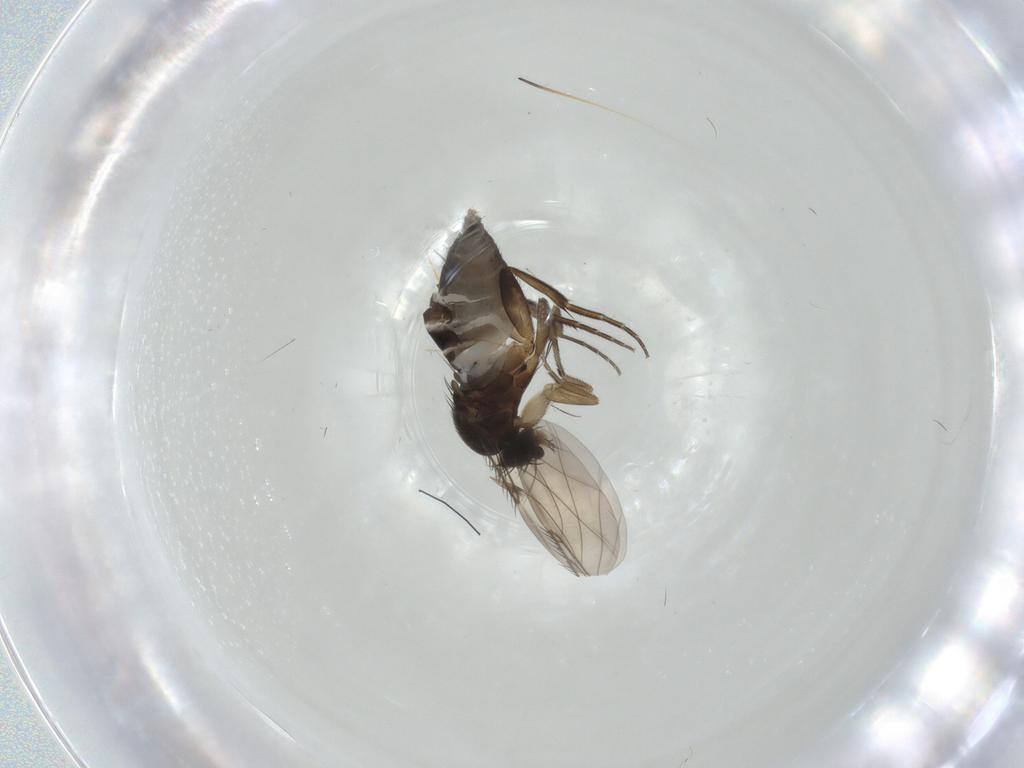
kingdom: Animalia
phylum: Arthropoda
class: Insecta
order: Diptera
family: Phoridae
